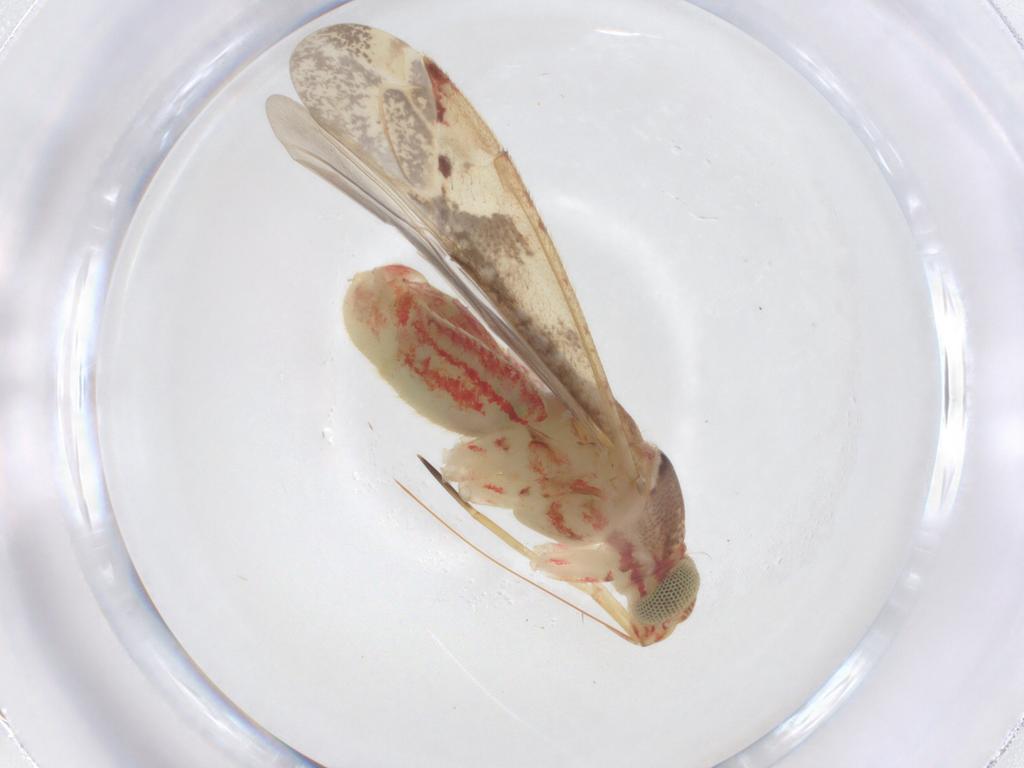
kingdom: Animalia
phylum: Arthropoda
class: Insecta
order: Hemiptera
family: Miridae
